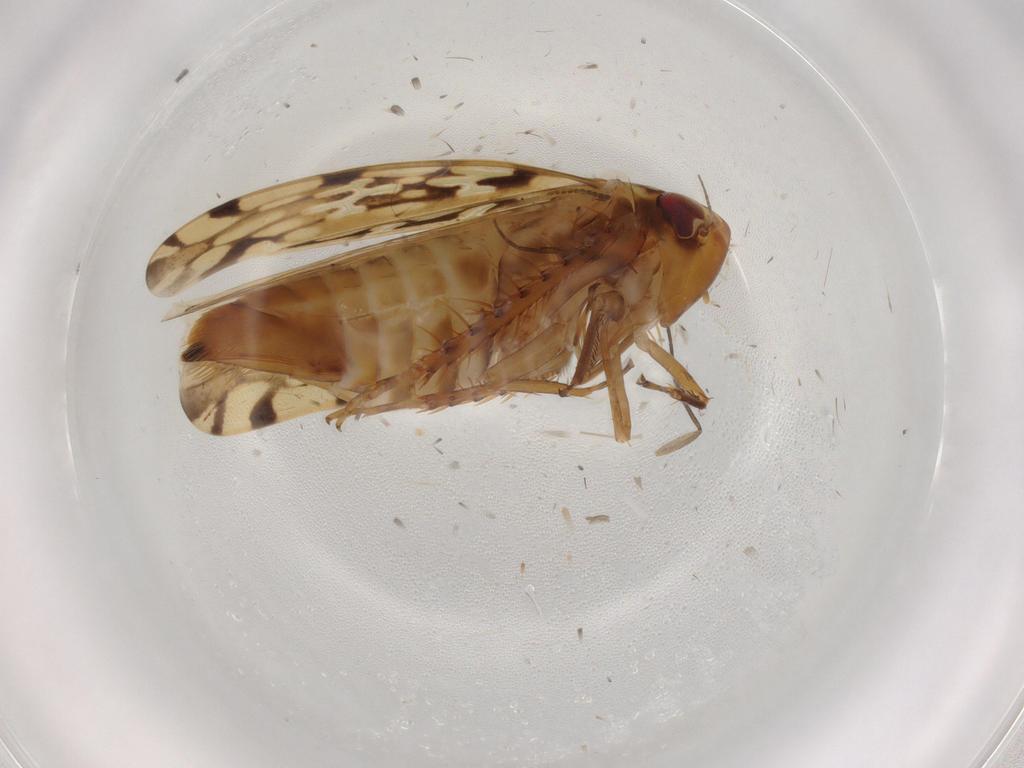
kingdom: Animalia
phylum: Arthropoda
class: Insecta
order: Hemiptera
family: Cicadellidae
